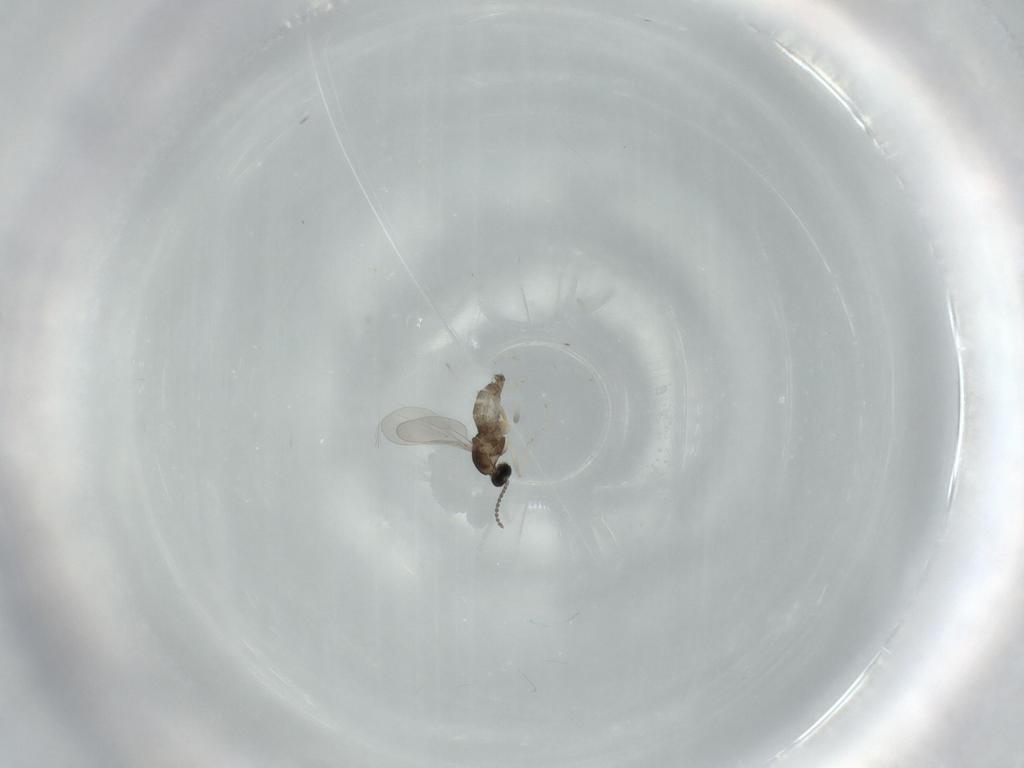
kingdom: Animalia
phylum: Arthropoda
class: Insecta
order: Diptera
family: Cecidomyiidae
